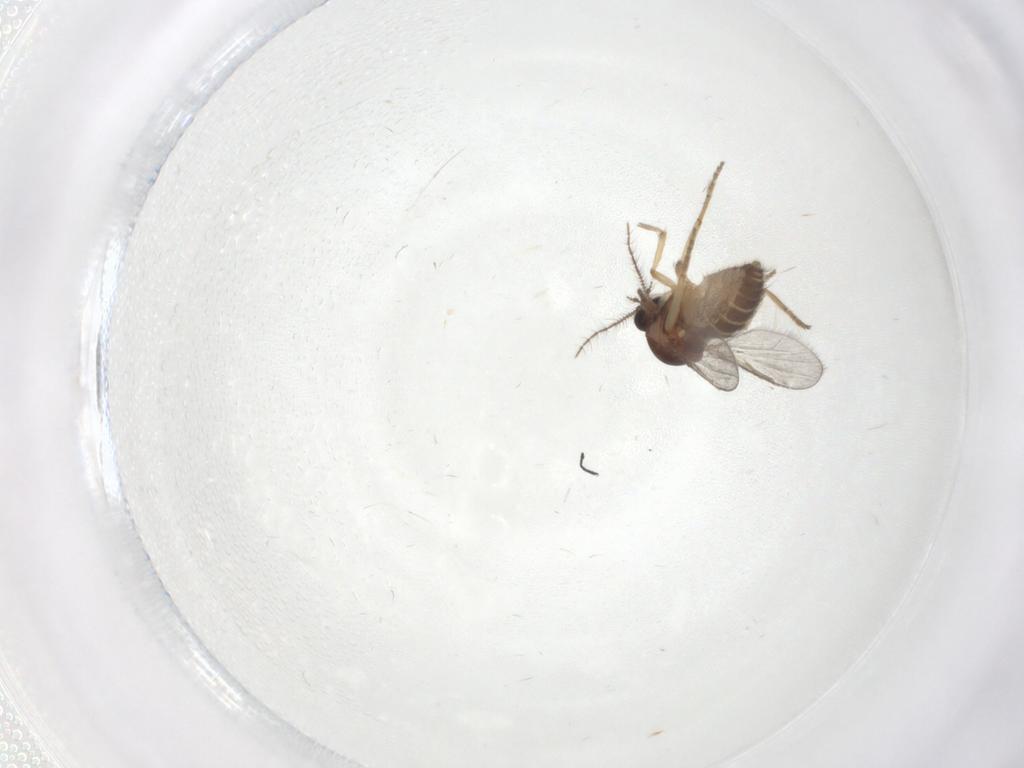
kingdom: Animalia
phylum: Arthropoda
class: Insecta
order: Diptera
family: Ceratopogonidae
